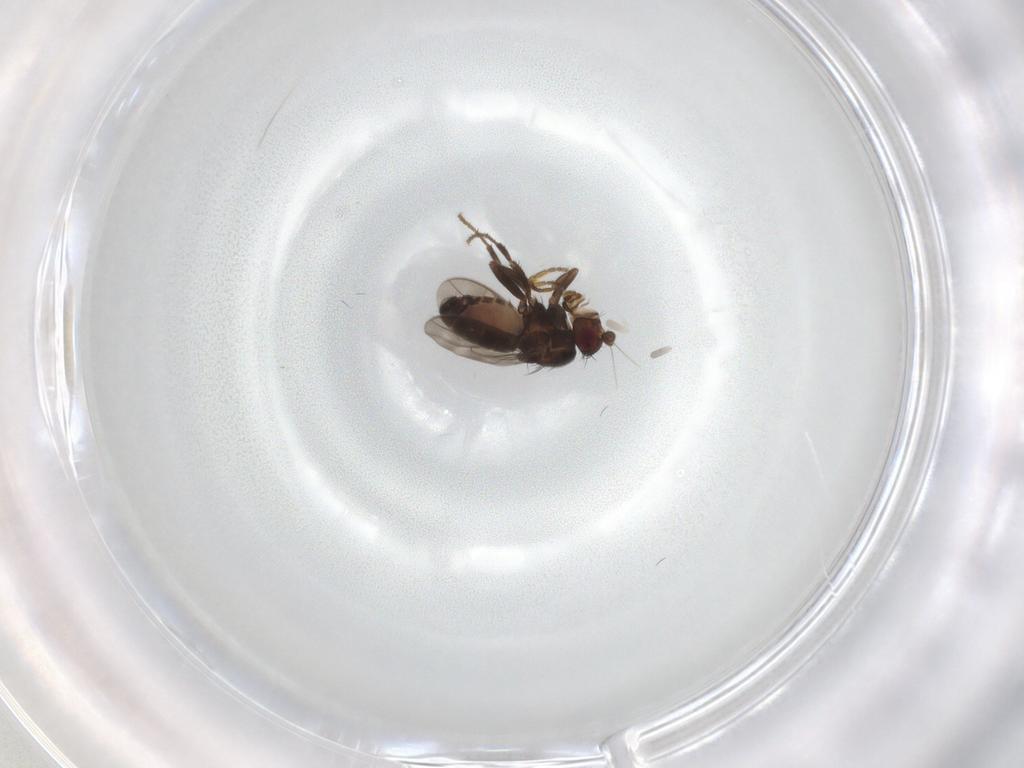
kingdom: Animalia
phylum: Arthropoda
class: Insecta
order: Diptera
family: Sphaeroceridae
